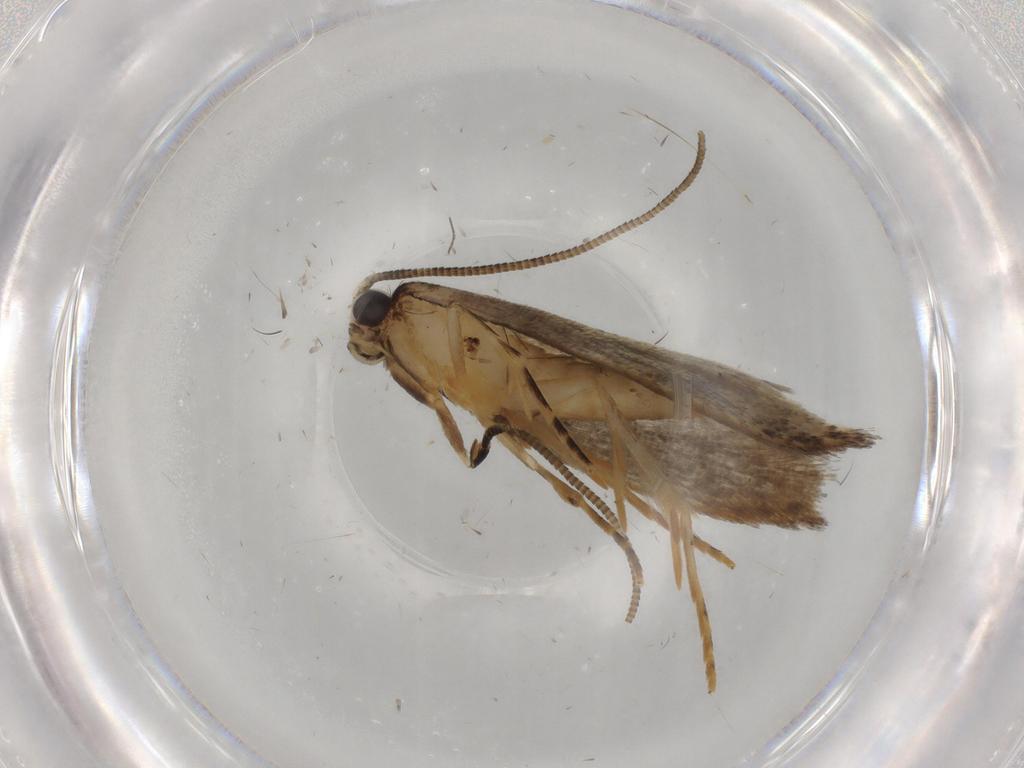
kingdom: Animalia
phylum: Arthropoda
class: Insecta
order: Lepidoptera
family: Tineidae
